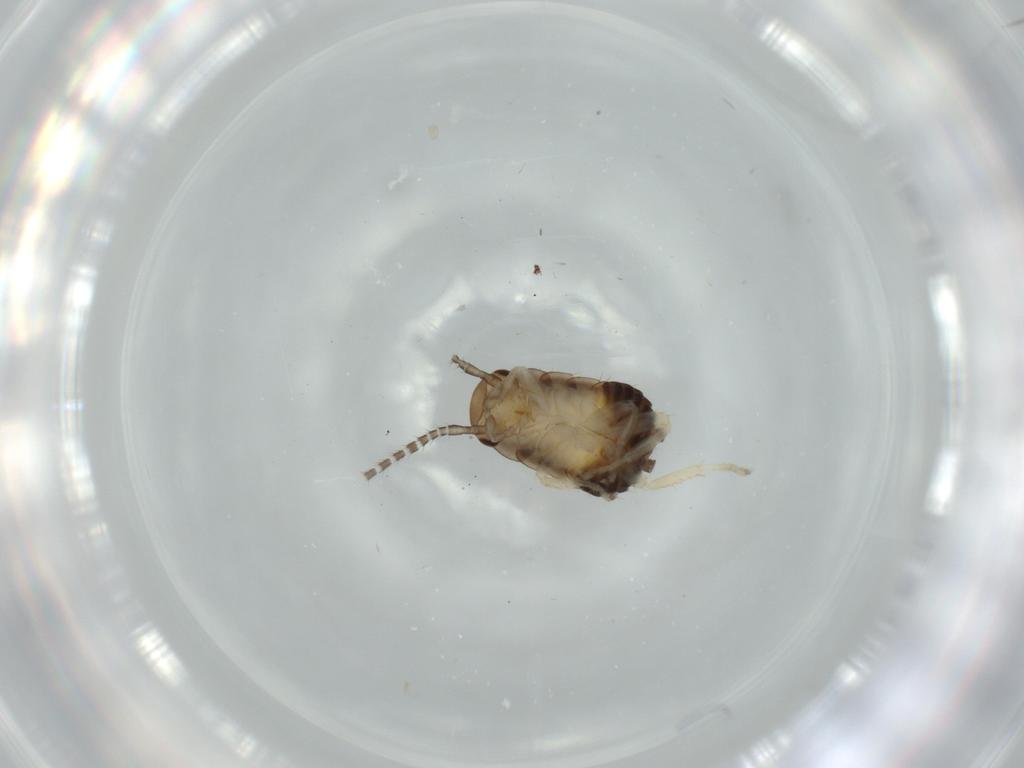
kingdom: Animalia
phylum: Arthropoda
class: Insecta
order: Blattodea
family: Ectobiidae
